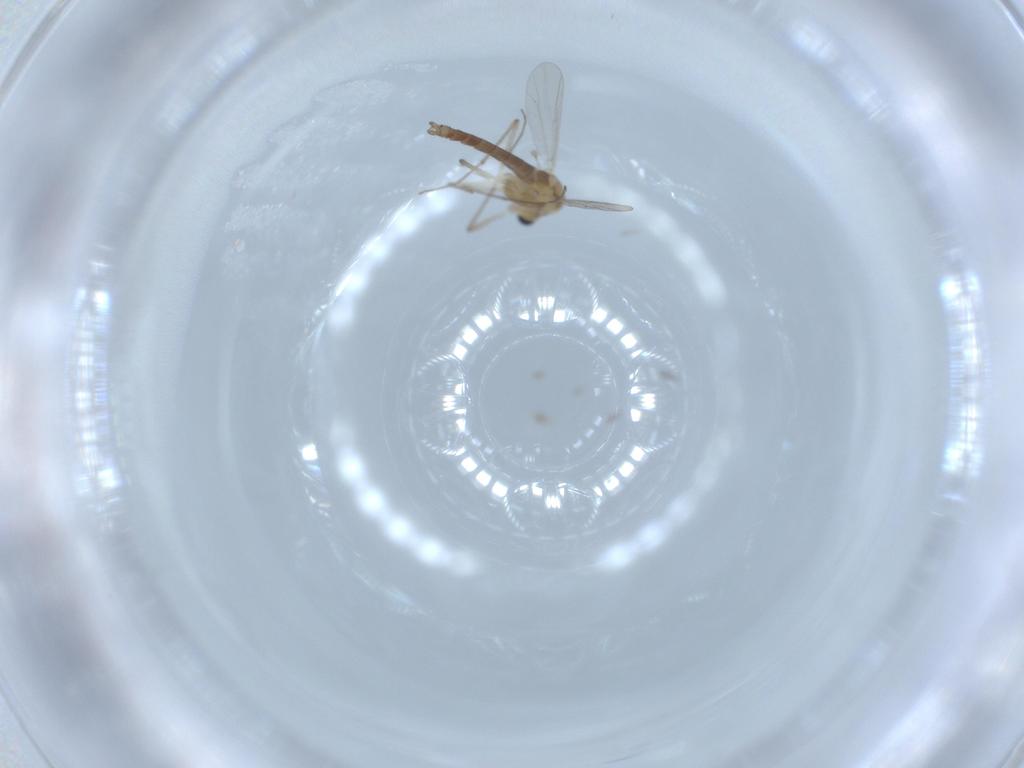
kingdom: Animalia
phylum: Arthropoda
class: Insecta
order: Diptera
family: Chironomidae
